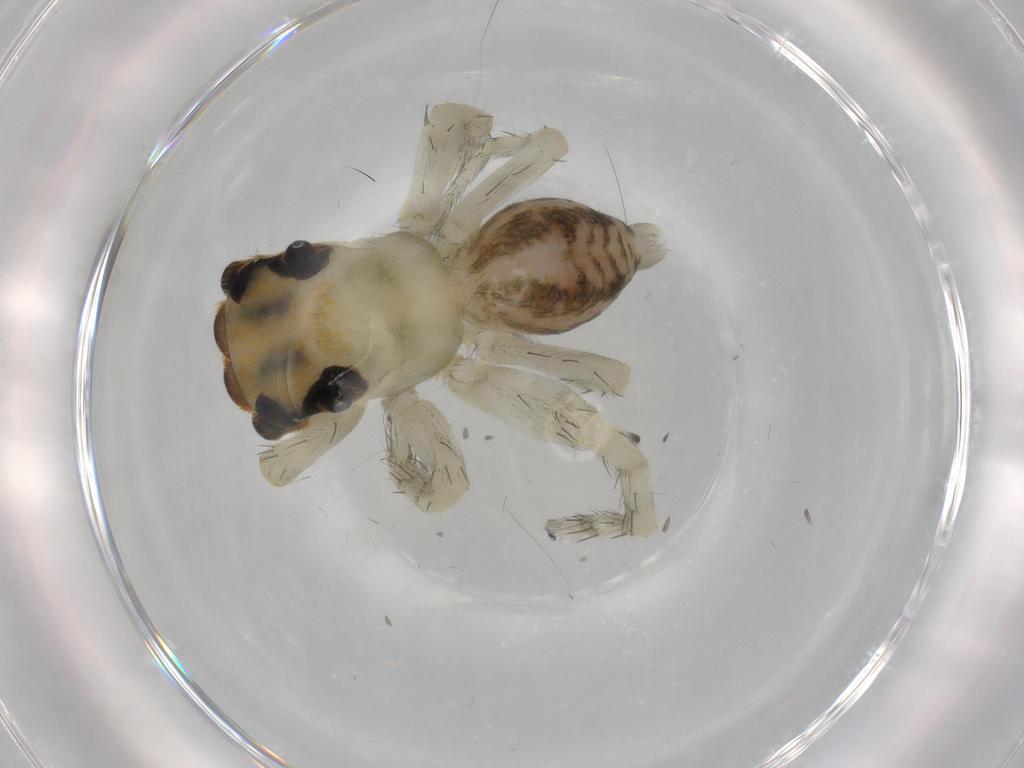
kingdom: Animalia
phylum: Arthropoda
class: Arachnida
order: Araneae
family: Salticidae
